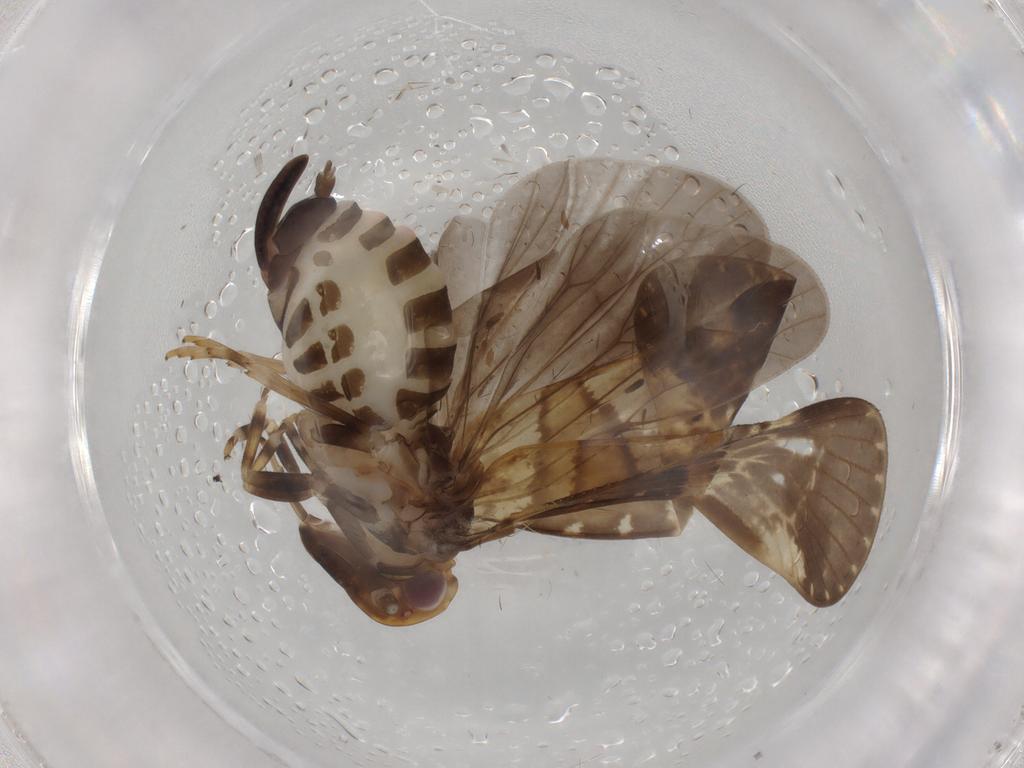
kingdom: Animalia
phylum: Arthropoda
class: Insecta
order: Hemiptera
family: Cixiidae
